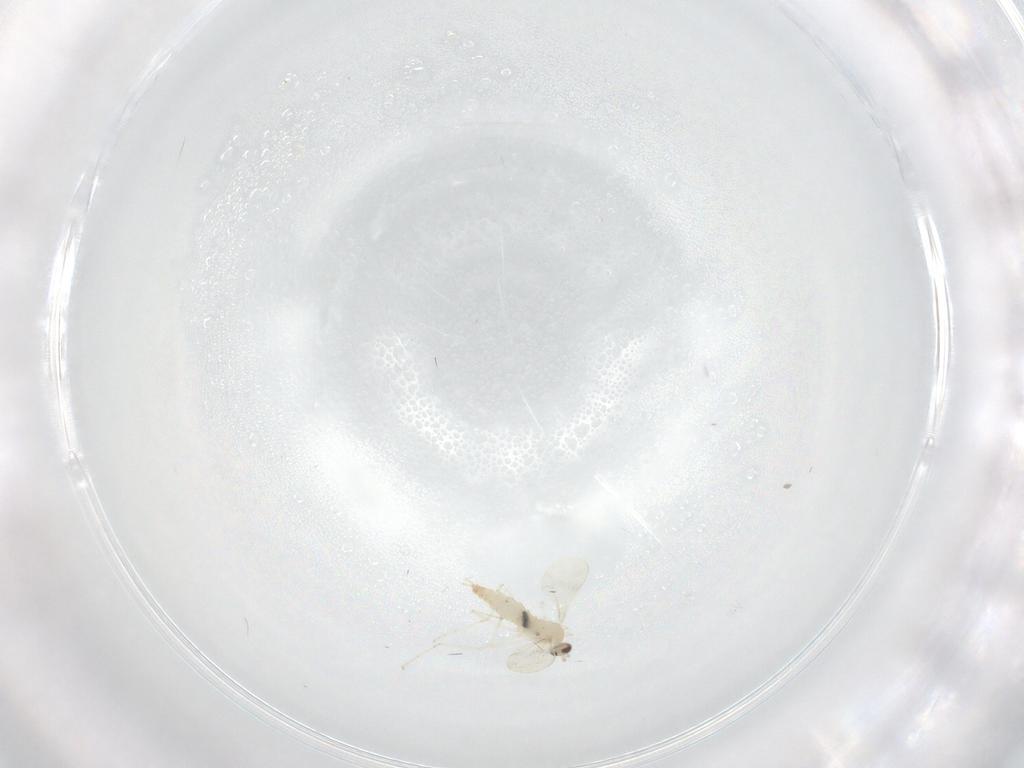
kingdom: Animalia
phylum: Arthropoda
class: Insecta
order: Diptera
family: Cecidomyiidae
